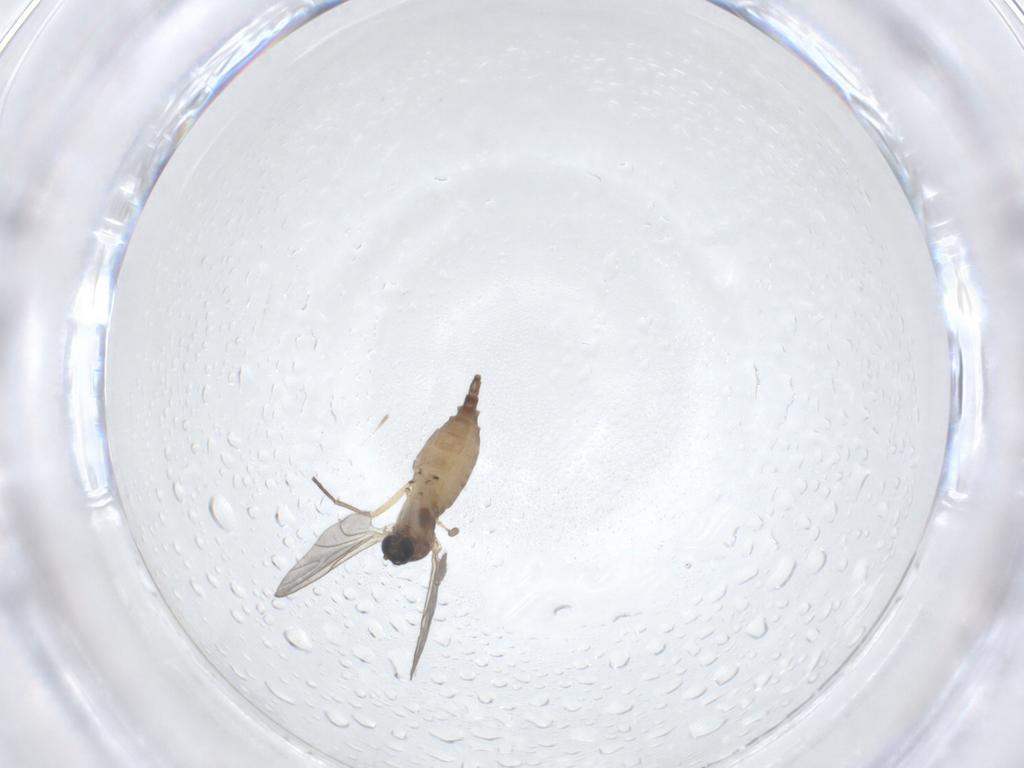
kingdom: Animalia
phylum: Arthropoda
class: Insecta
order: Diptera
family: Sciaridae
